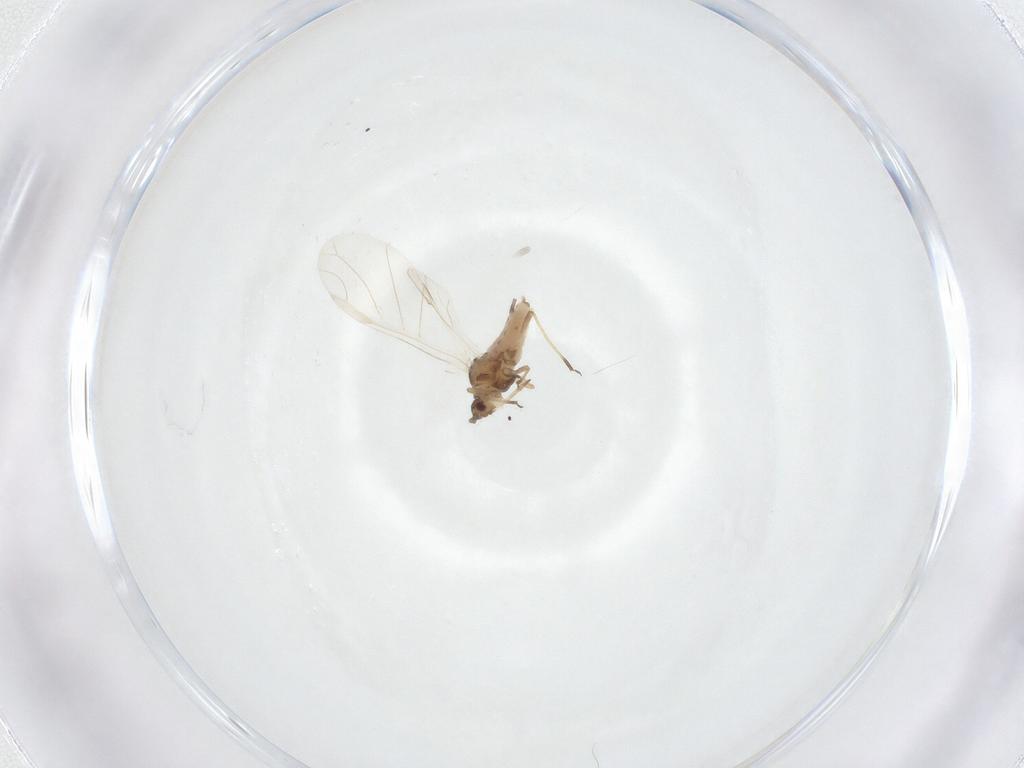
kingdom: Animalia
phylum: Arthropoda
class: Insecta
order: Hemiptera
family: Aphididae
